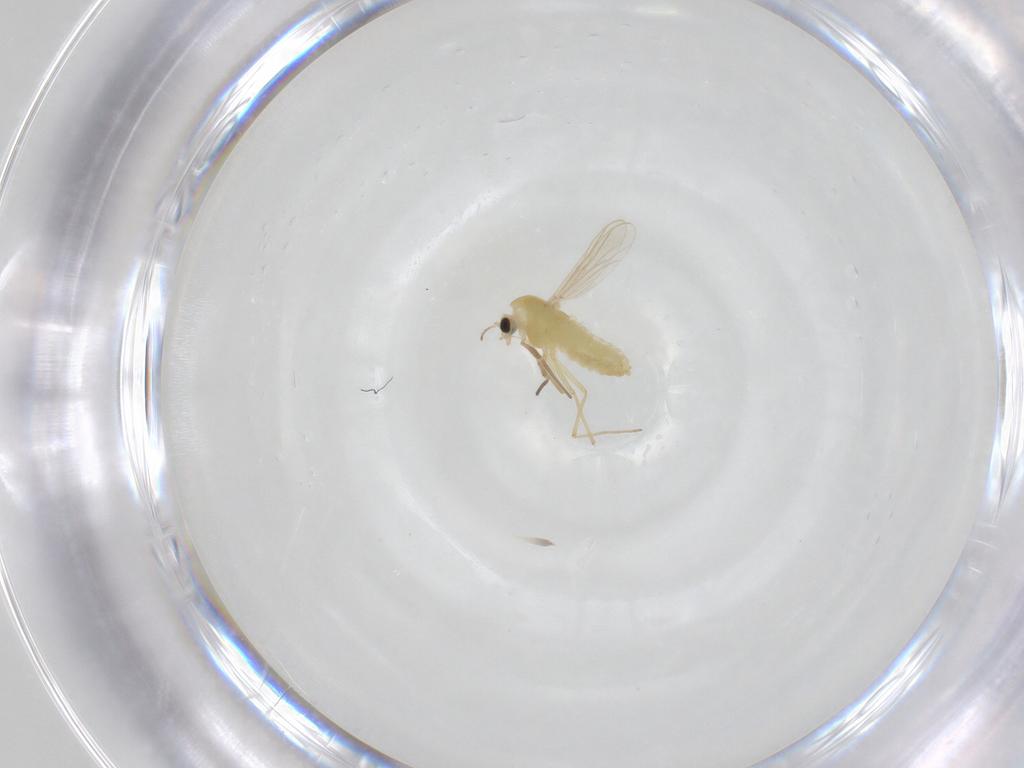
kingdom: Animalia
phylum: Arthropoda
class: Insecta
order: Diptera
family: Chironomidae
